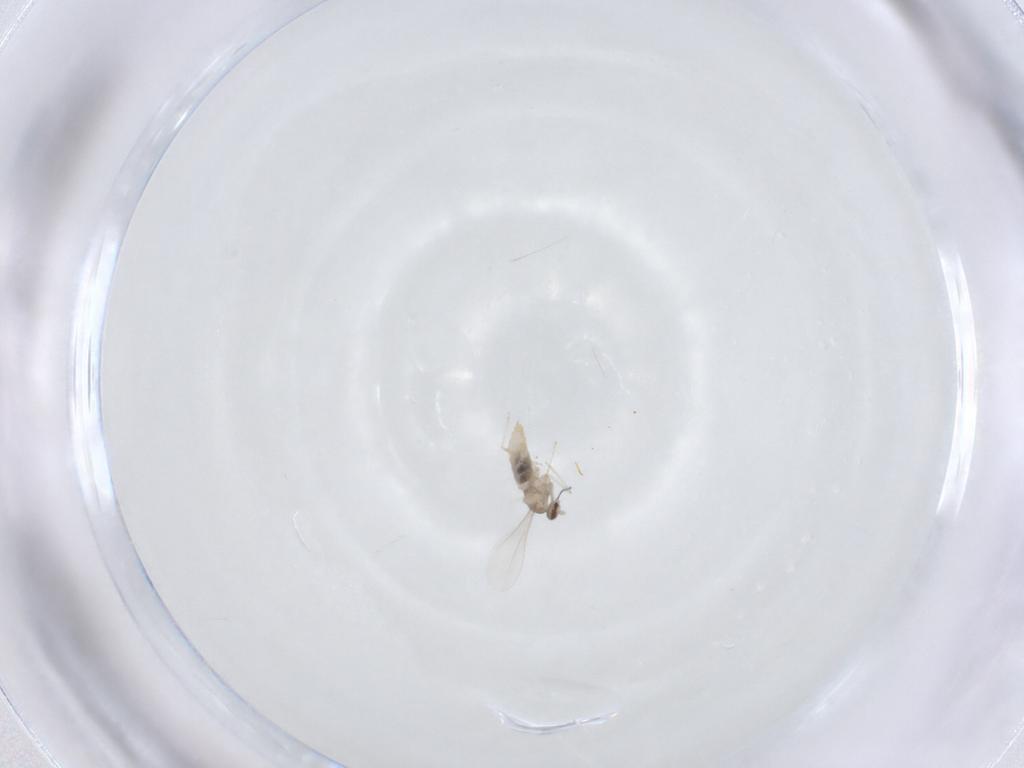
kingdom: Animalia
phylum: Arthropoda
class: Insecta
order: Diptera
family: Cecidomyiidae
